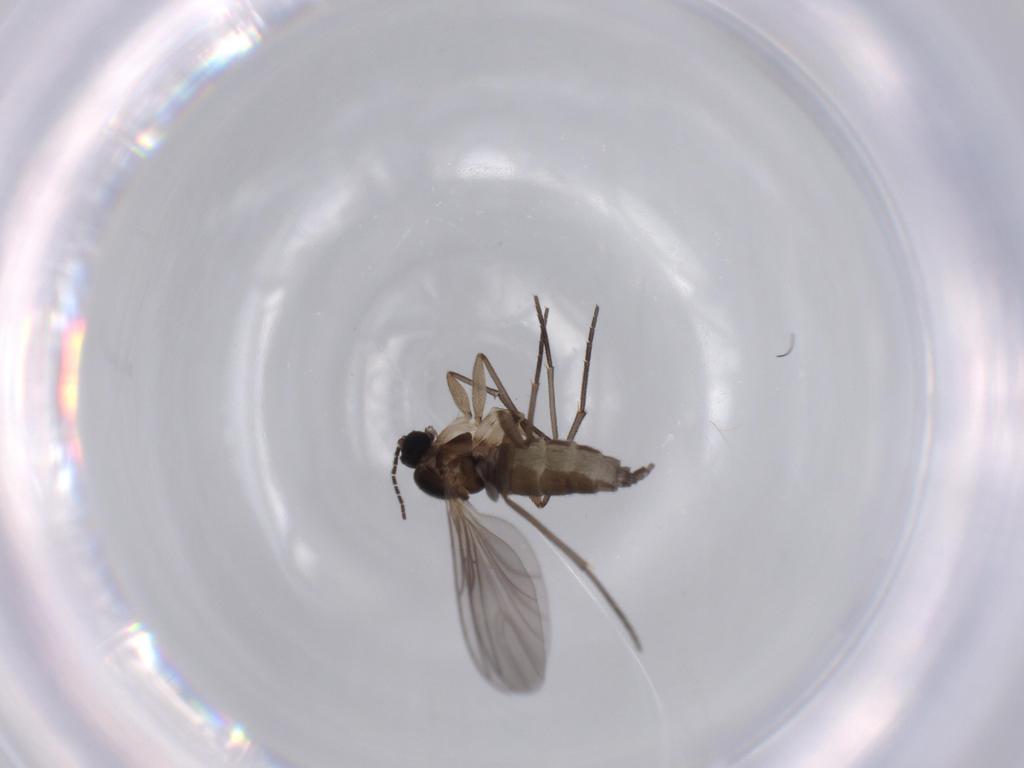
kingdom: Animalia
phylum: Arthropoda
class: Insecta
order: Diptera
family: Sciaridae
